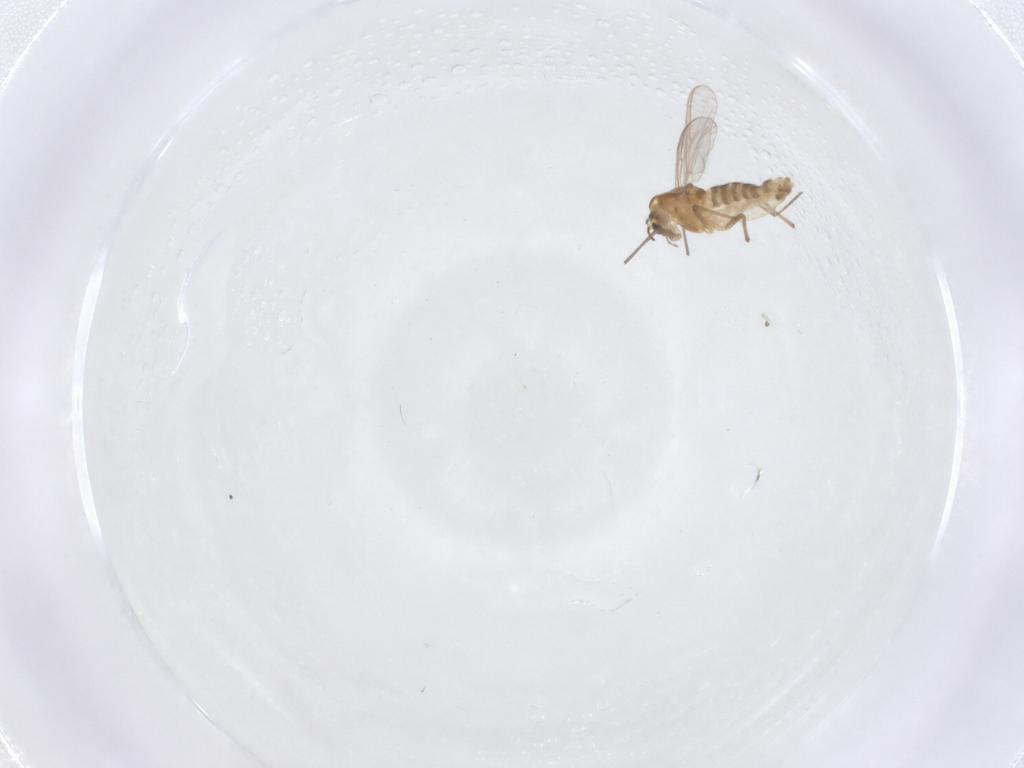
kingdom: Animalia
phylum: Arthropoda
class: Insecta
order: Diptera
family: Chironomidae
